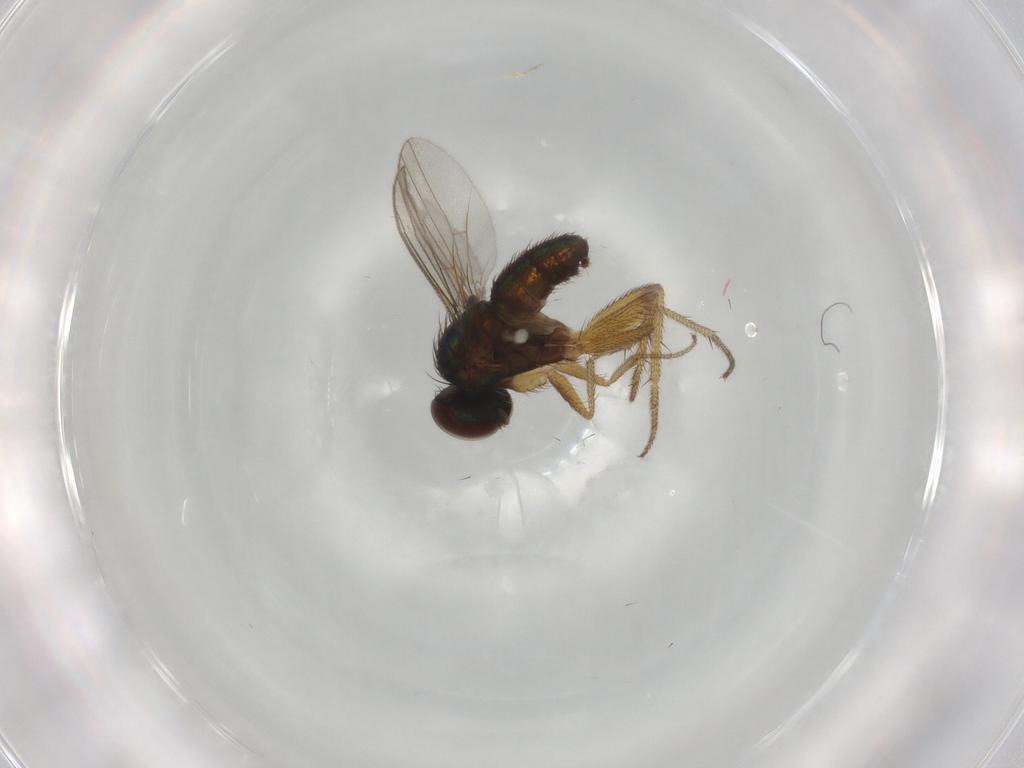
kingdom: Animalia
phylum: Arthropoda
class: Insecta
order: Diptera
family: Dolichopodidae
